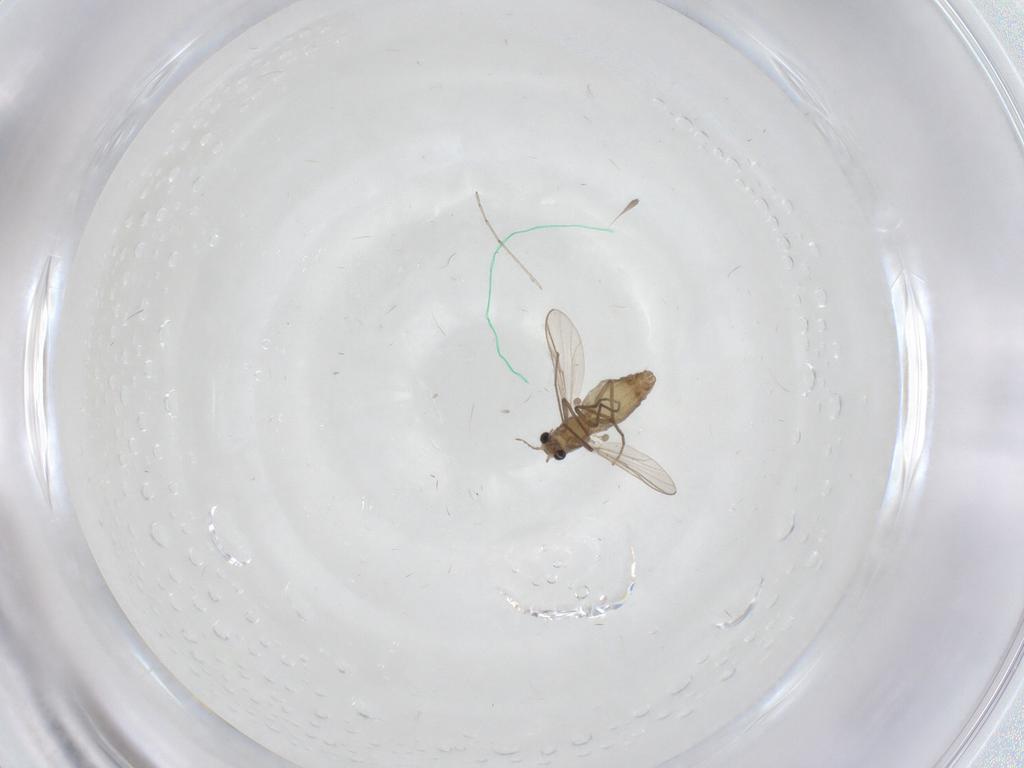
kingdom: Animalia
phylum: Arthropoda
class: Insecta
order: Diptera
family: Chironomidae
